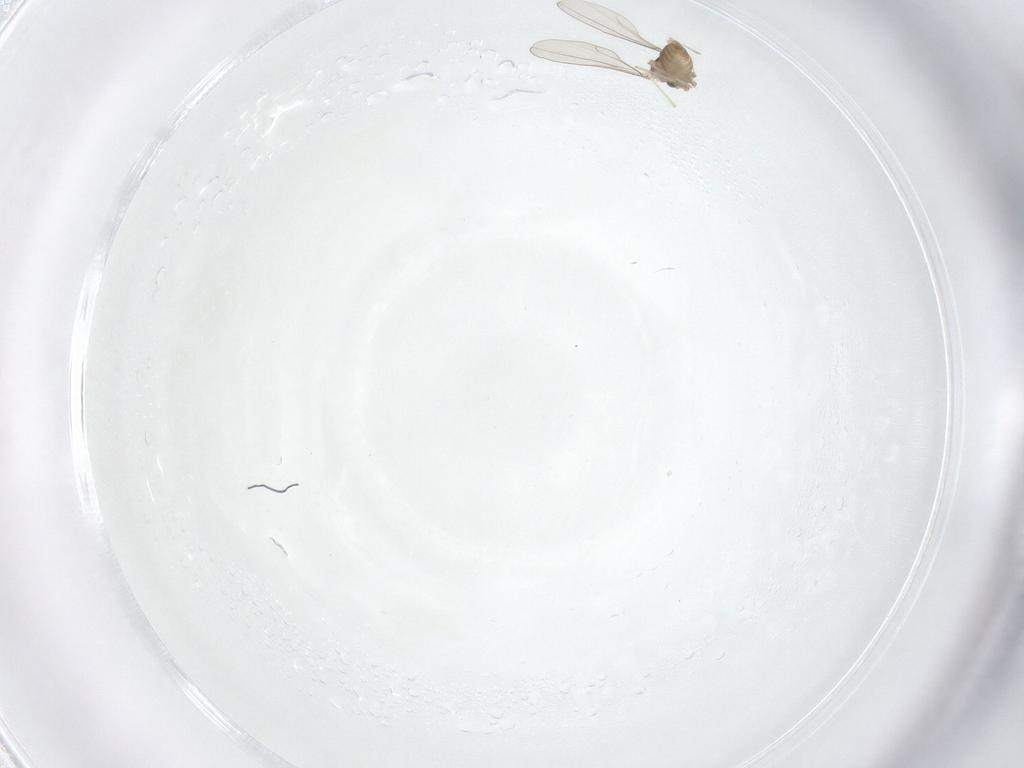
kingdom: Animalia
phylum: Arthropoda
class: Insecta
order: Diptera
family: Cecidomyiidae
